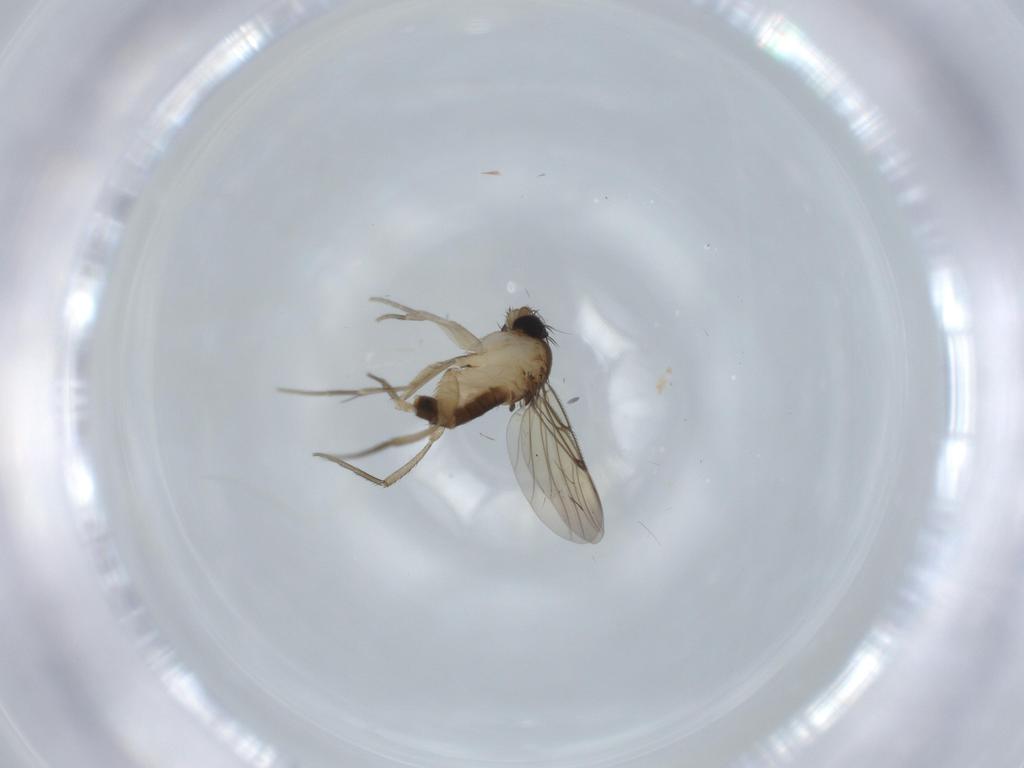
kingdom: Animalia
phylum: Arthropoda
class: Insecta
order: Diptera
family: Phoridae
